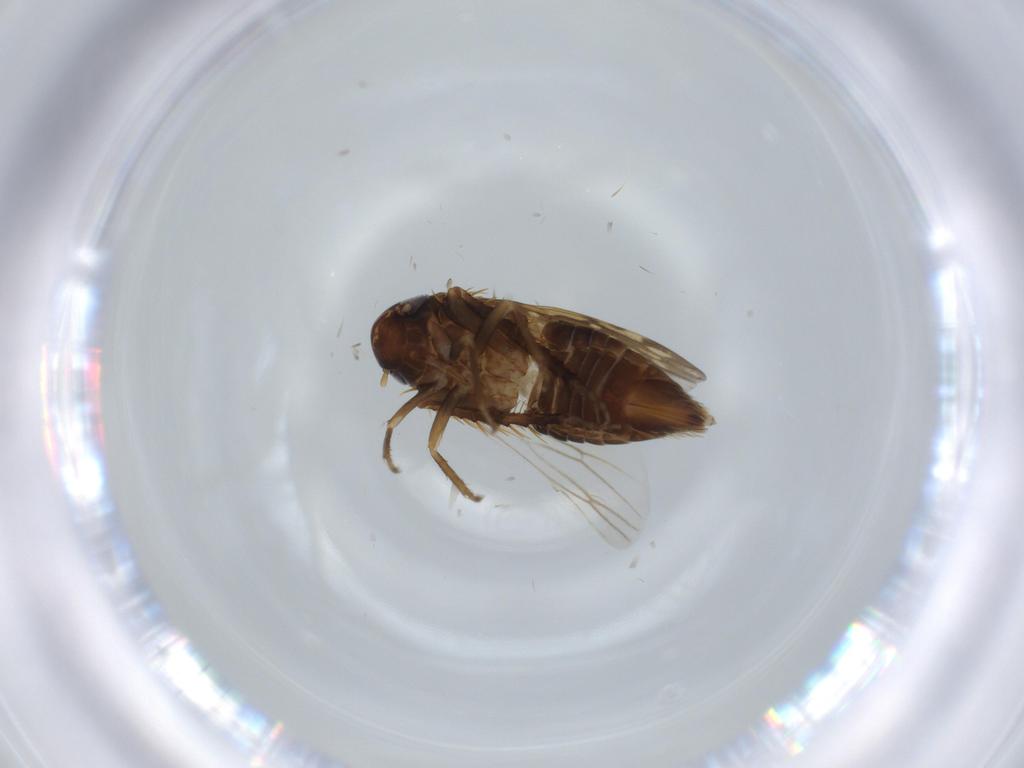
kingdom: Animalia
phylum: Arthropoda
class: Insecta
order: Hemiptera
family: Cicadellidae
